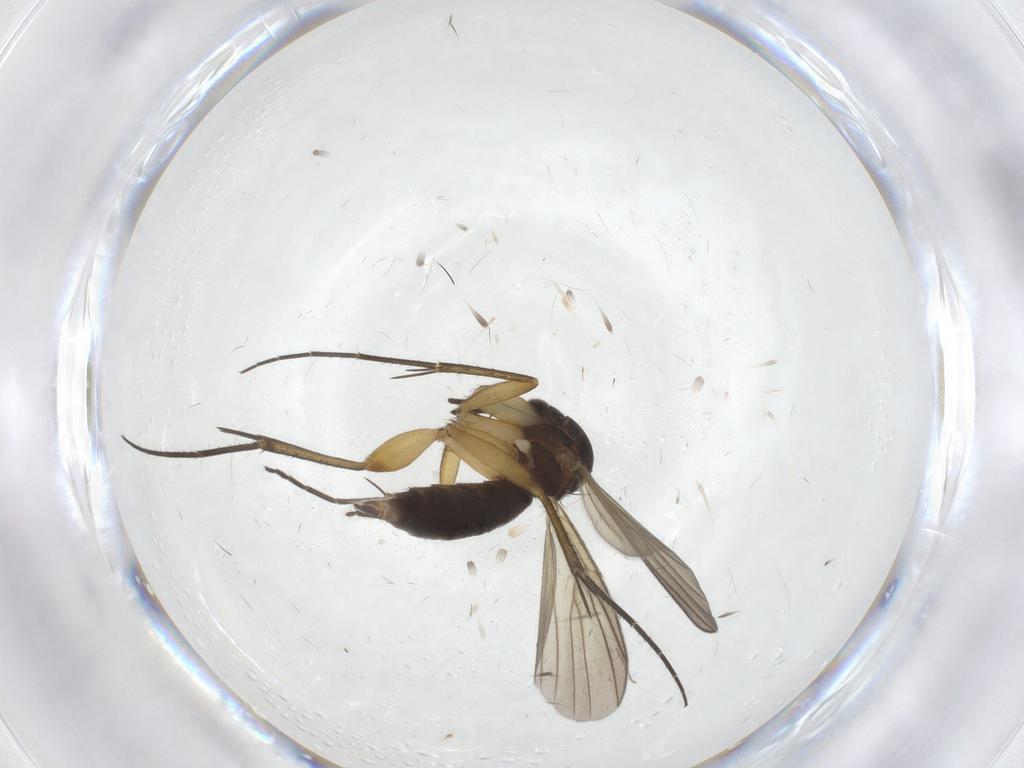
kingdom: Animalia
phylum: Arthropoda
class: Insecta
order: Diptera
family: Mycetophilidae
